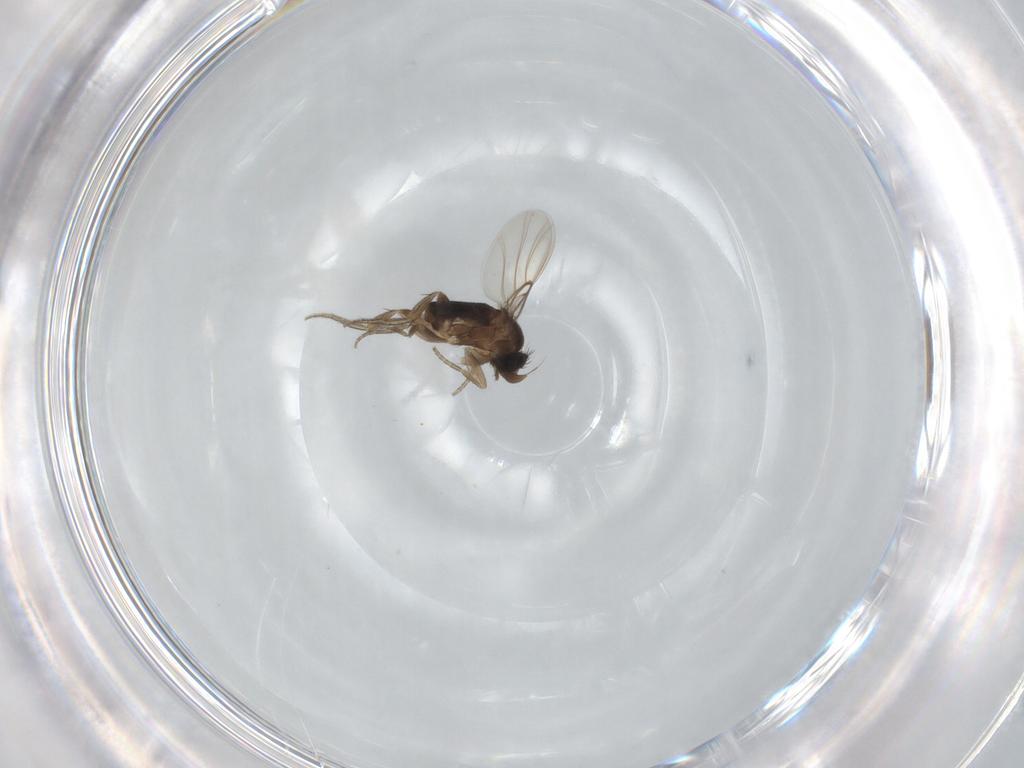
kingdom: Animalia
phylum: Arthropoda
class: Insecta
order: Diptera
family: Phoridae
